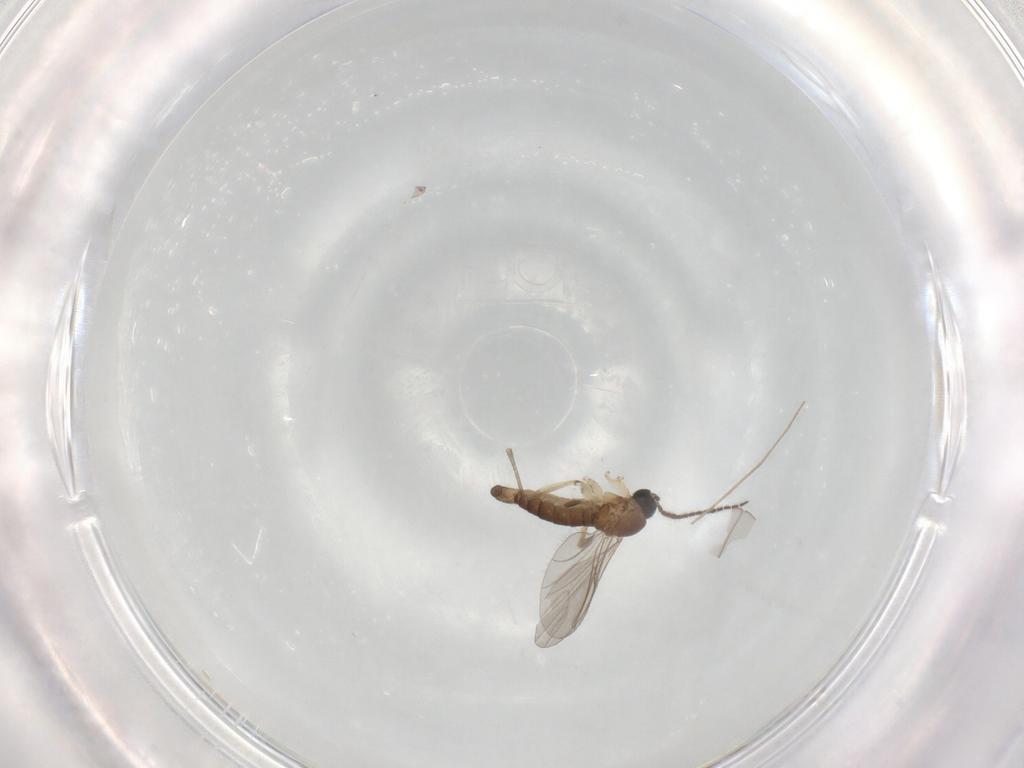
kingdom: Animalia
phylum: Arthropoda
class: Insecta
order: Diptera
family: Sciaridae
